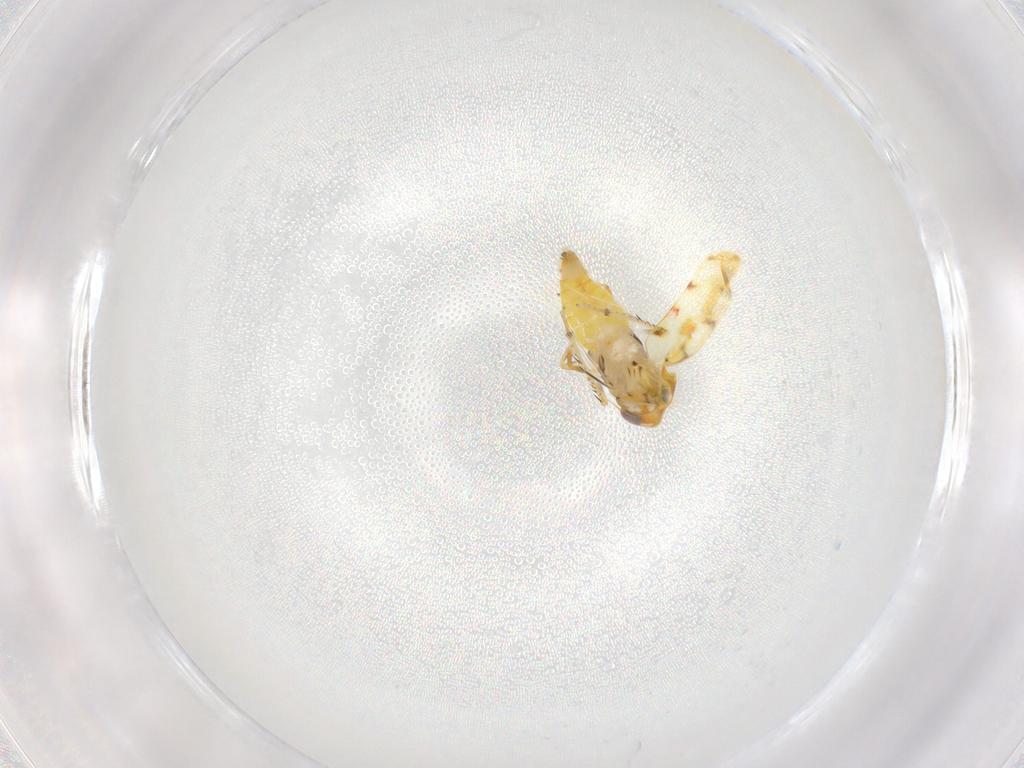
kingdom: Animalia
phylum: Arthropoda
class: Insecta
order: Hemiptera
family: Cicadellidae
